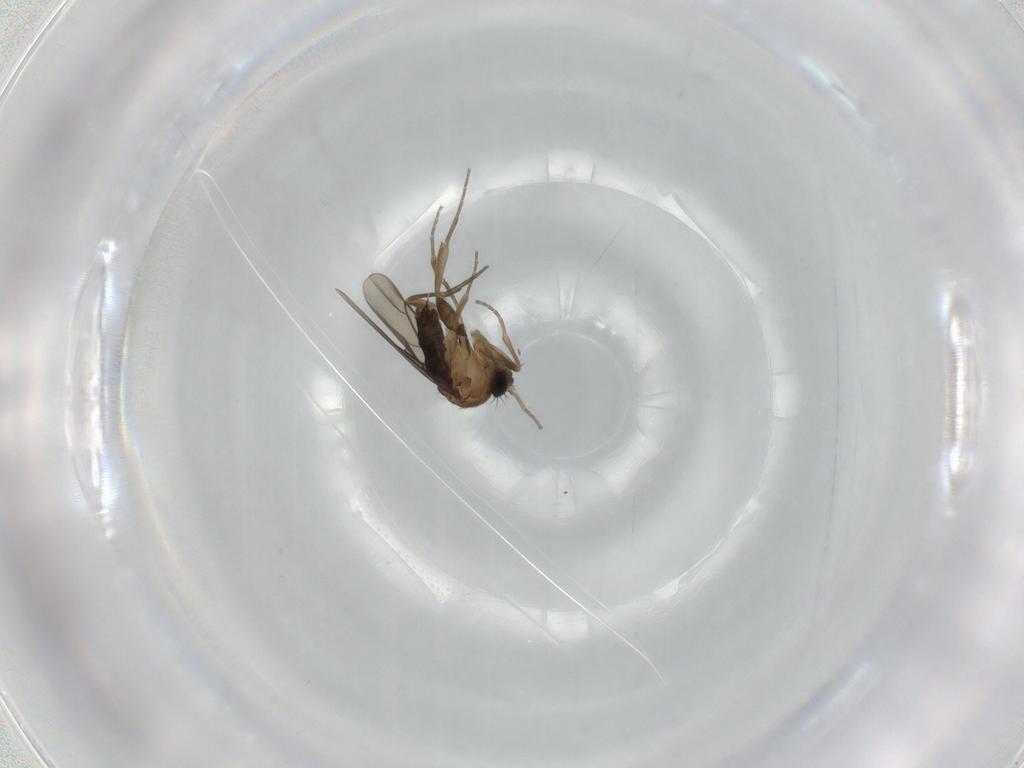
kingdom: Animalia
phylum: Arthropoda
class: Insecta
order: Diptera
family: Phoridae
